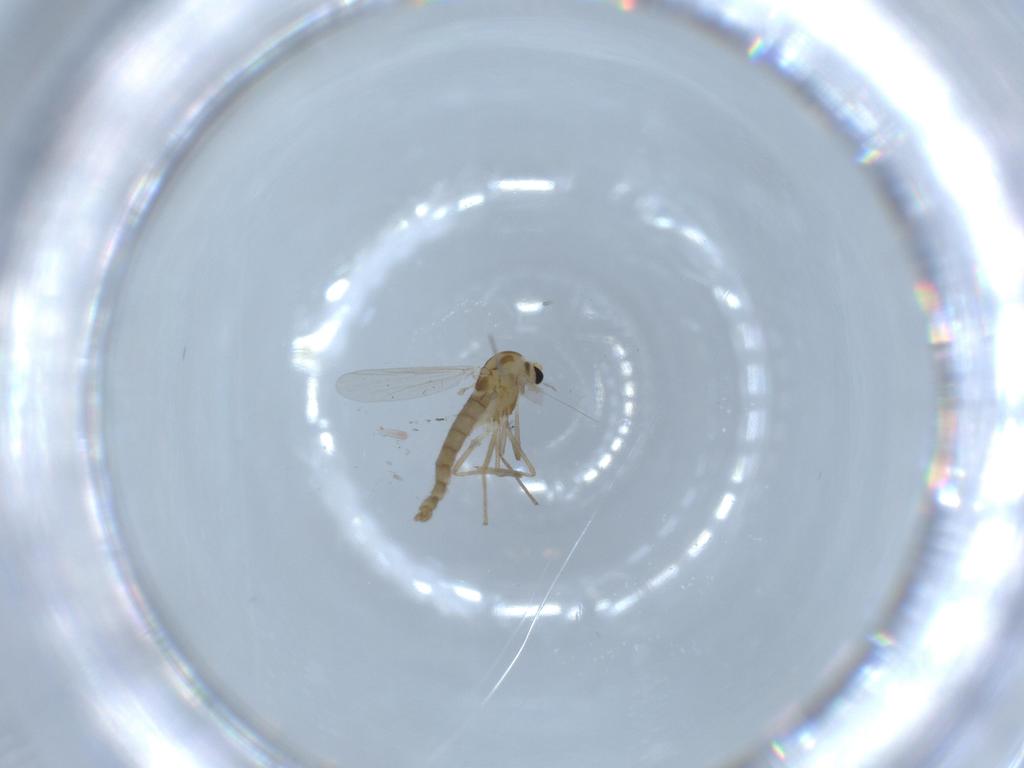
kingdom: Animalia
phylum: Arthropoda
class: Insecta
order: Diptera
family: Chironomidae
